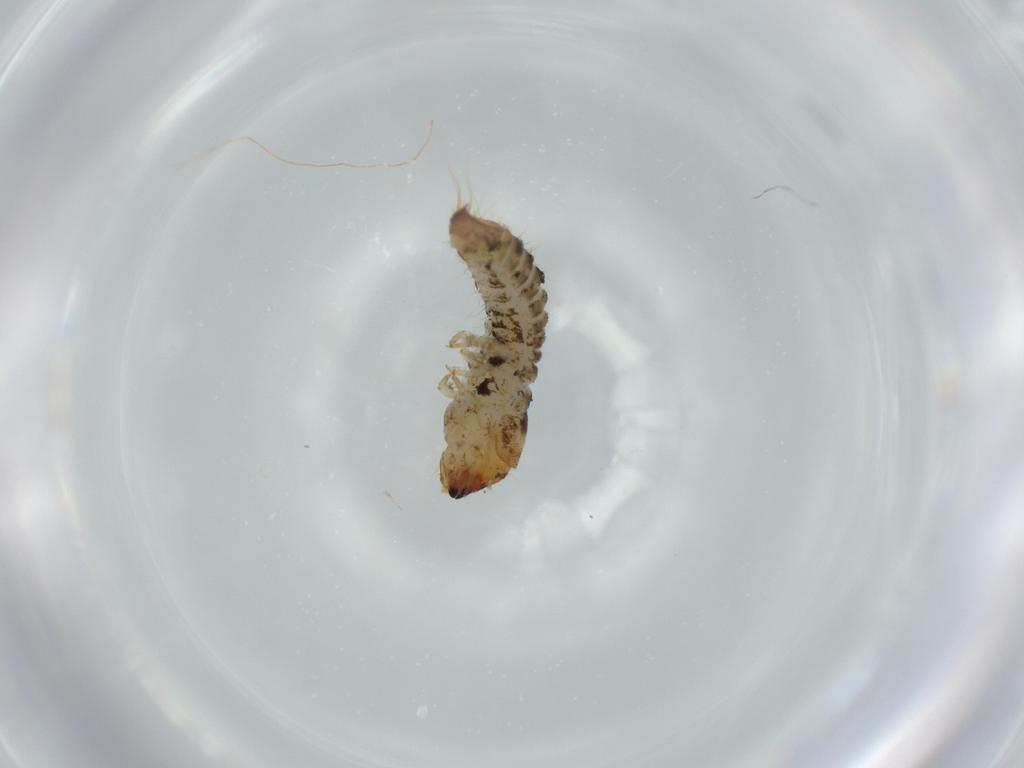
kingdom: Animalia
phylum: Arthropoda
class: Insecta
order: Coleoptera
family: Lymexylidae
